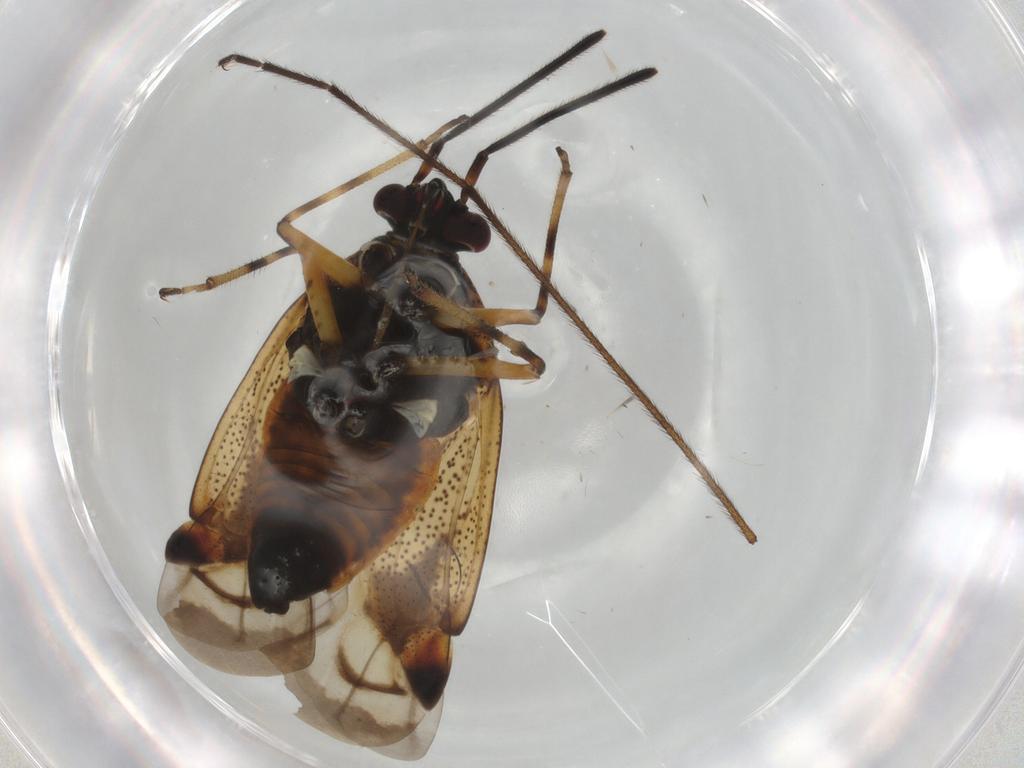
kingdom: Animalia
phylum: Arthropoda
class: Insecta
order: Hemiptera
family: Miridae
